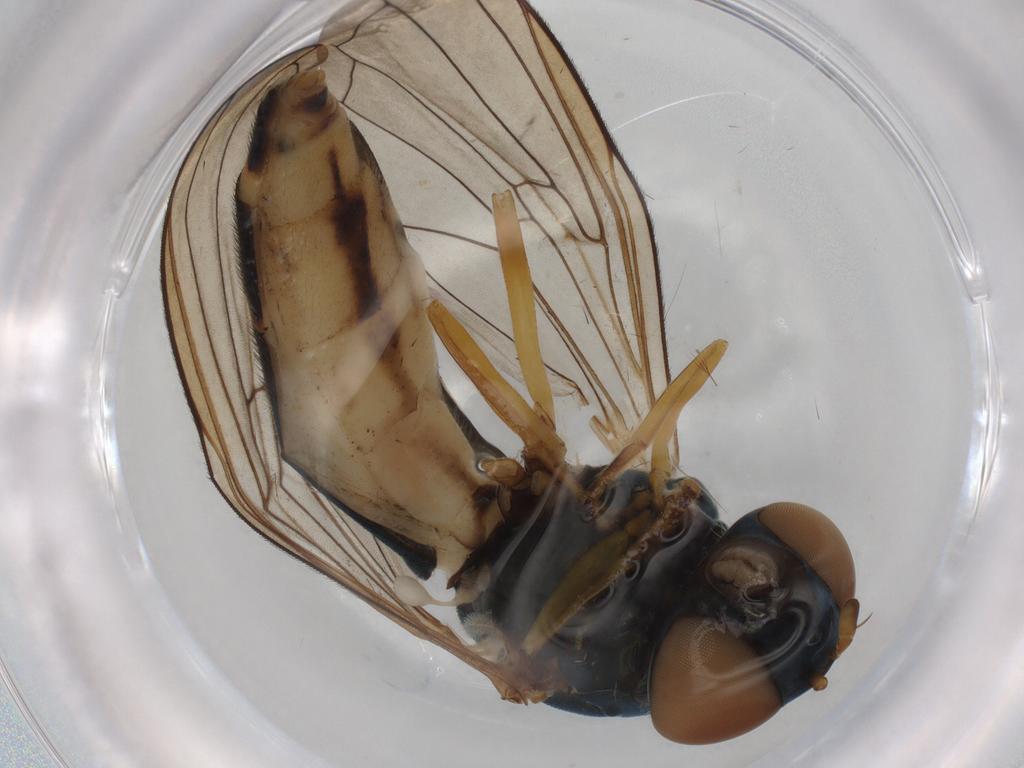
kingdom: Animalia
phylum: Arthropoda
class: Insecta
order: Diptera
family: Syrphidae
